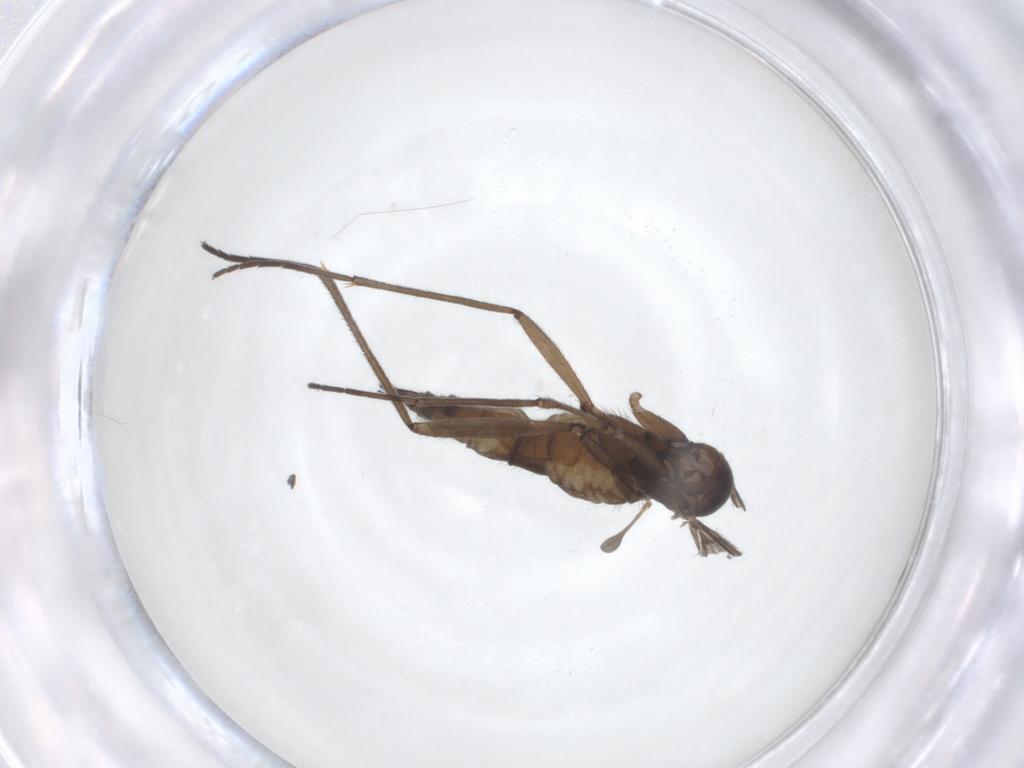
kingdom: Animalia
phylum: Arthropoda
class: Insecta
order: Diptera
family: Sciaridae
